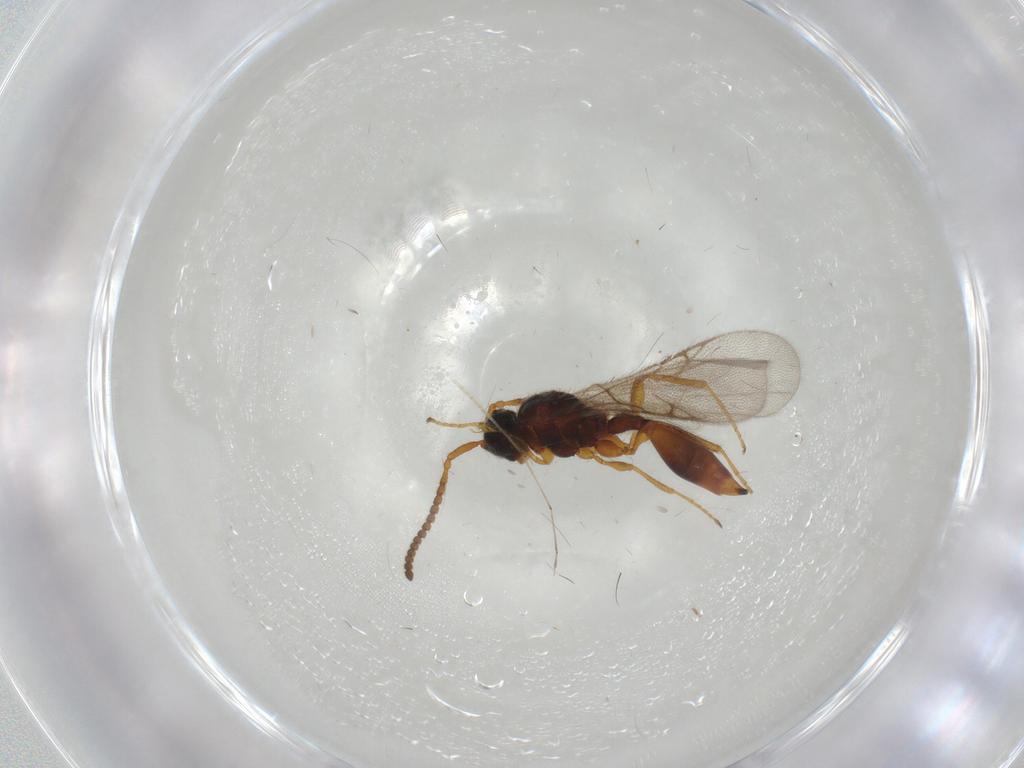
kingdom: Animalia
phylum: Arthropoda
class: Insecta
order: Hymenoptera
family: Diapriidae
